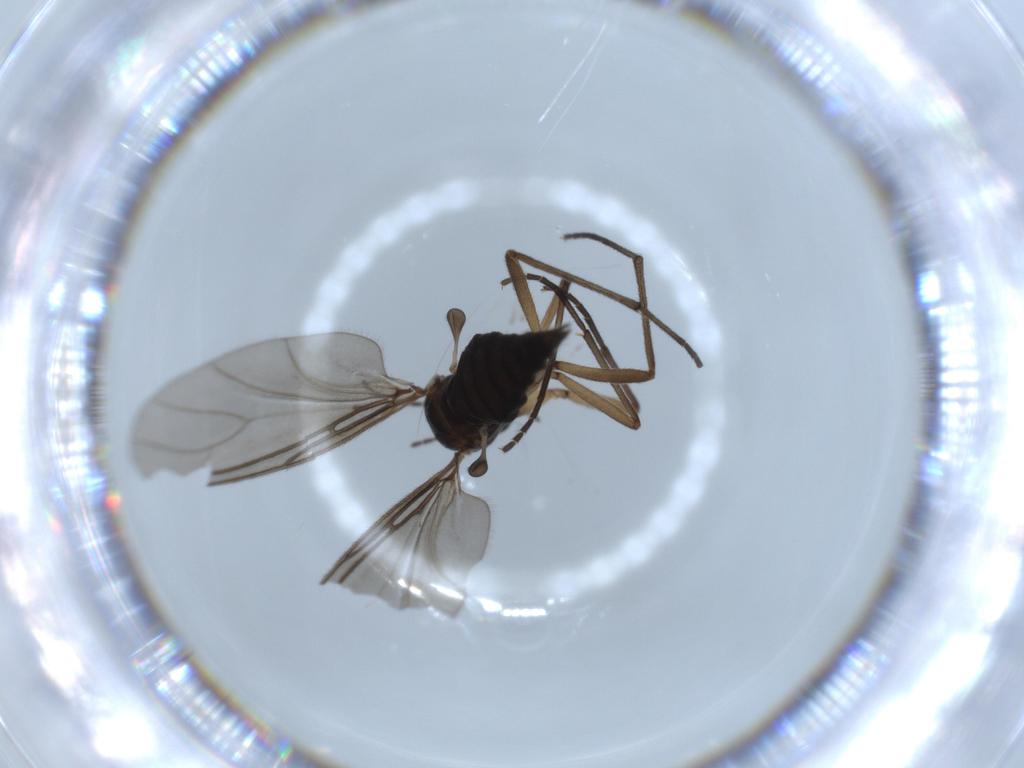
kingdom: Animalia
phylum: Arthropoda
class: Insecta
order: Diptera
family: Sciaridae
